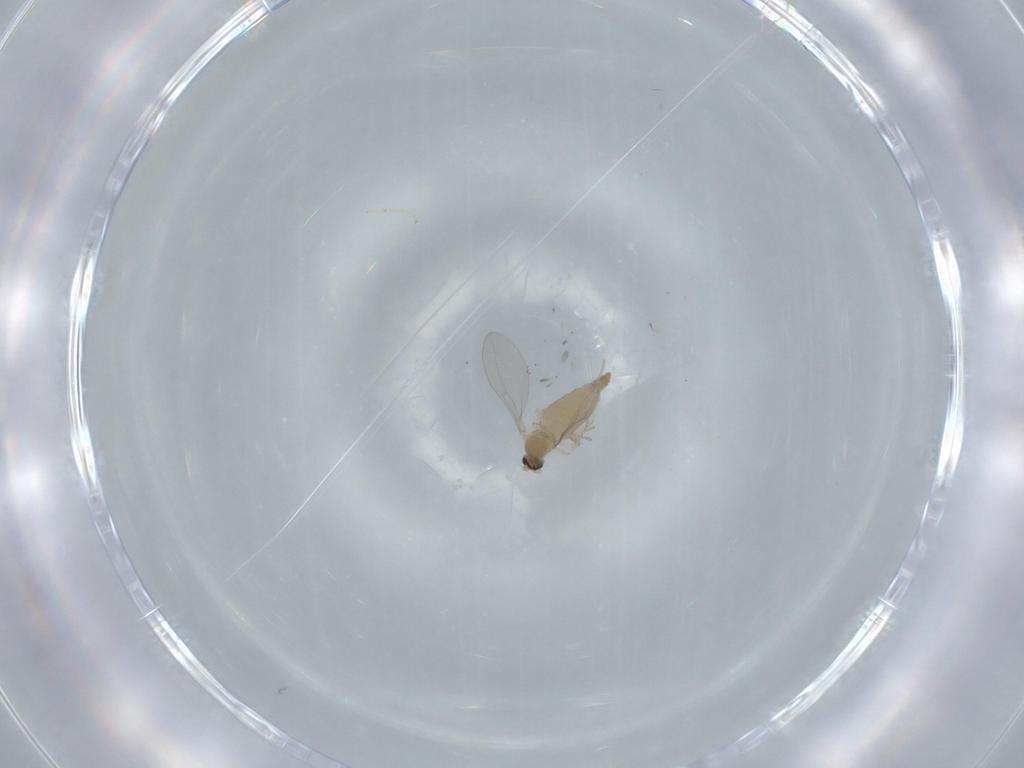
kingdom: Animalia
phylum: Arthropoda
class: Insecta
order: Diptera
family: Cecidomyiidae
